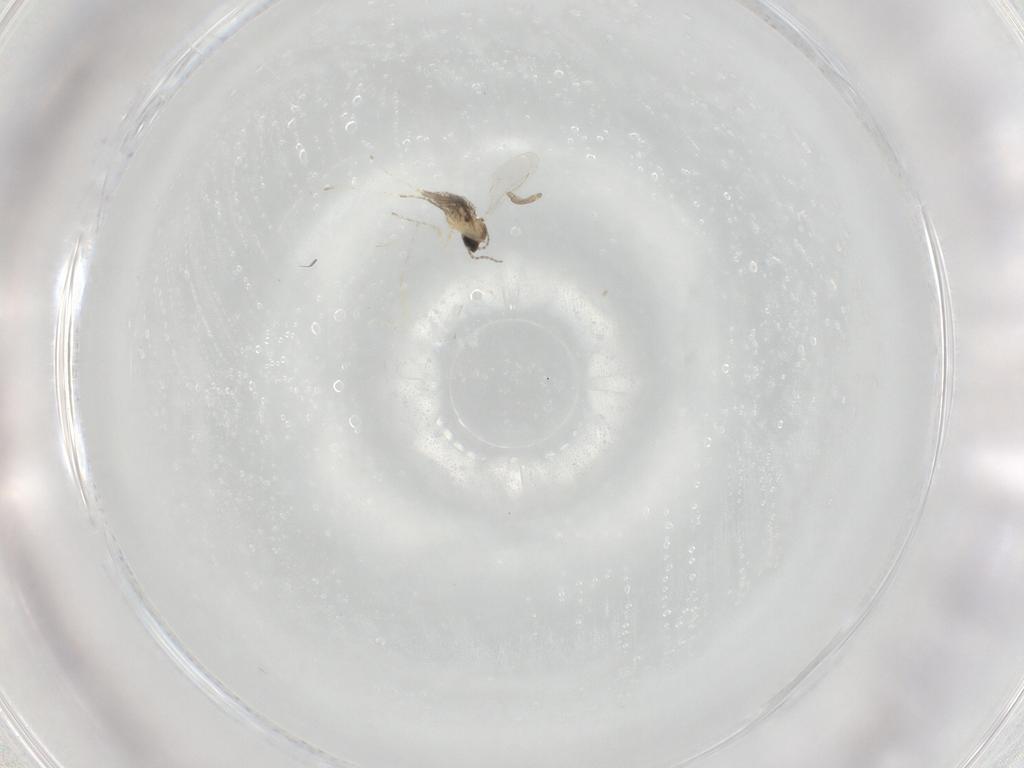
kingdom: Animalia
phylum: Arthropoda
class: Insecta
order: Diptera
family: Cecidomyiidae
